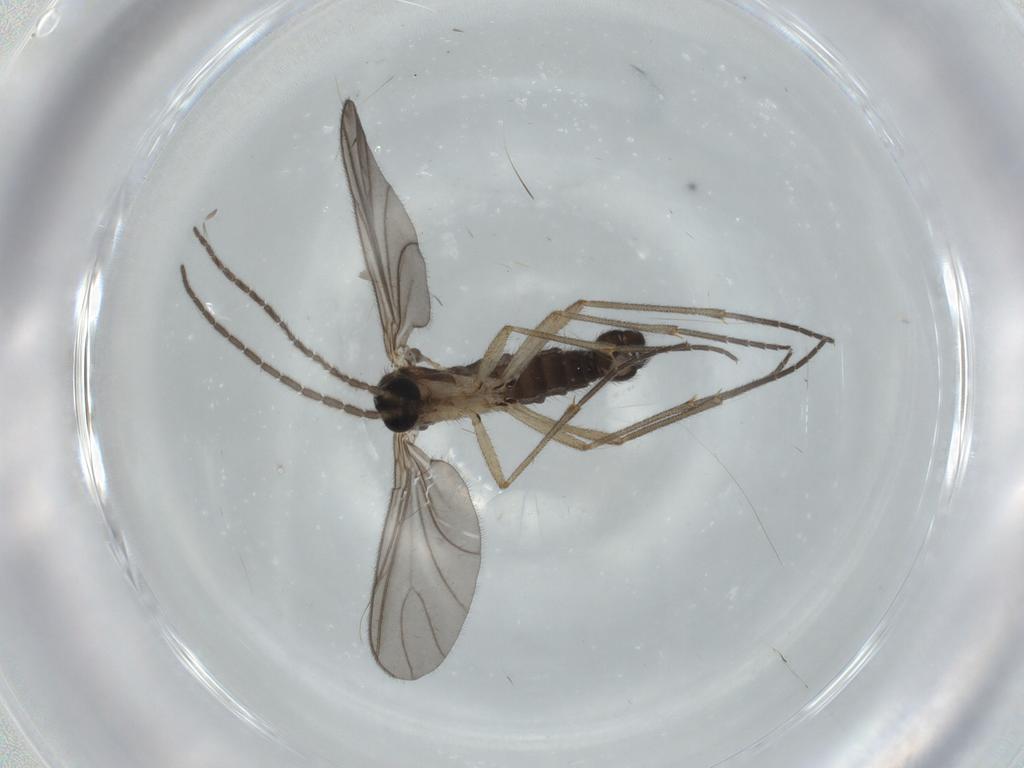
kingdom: Animalia
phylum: Arthropoda
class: Insecta
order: Diptera
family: Sciaridae
